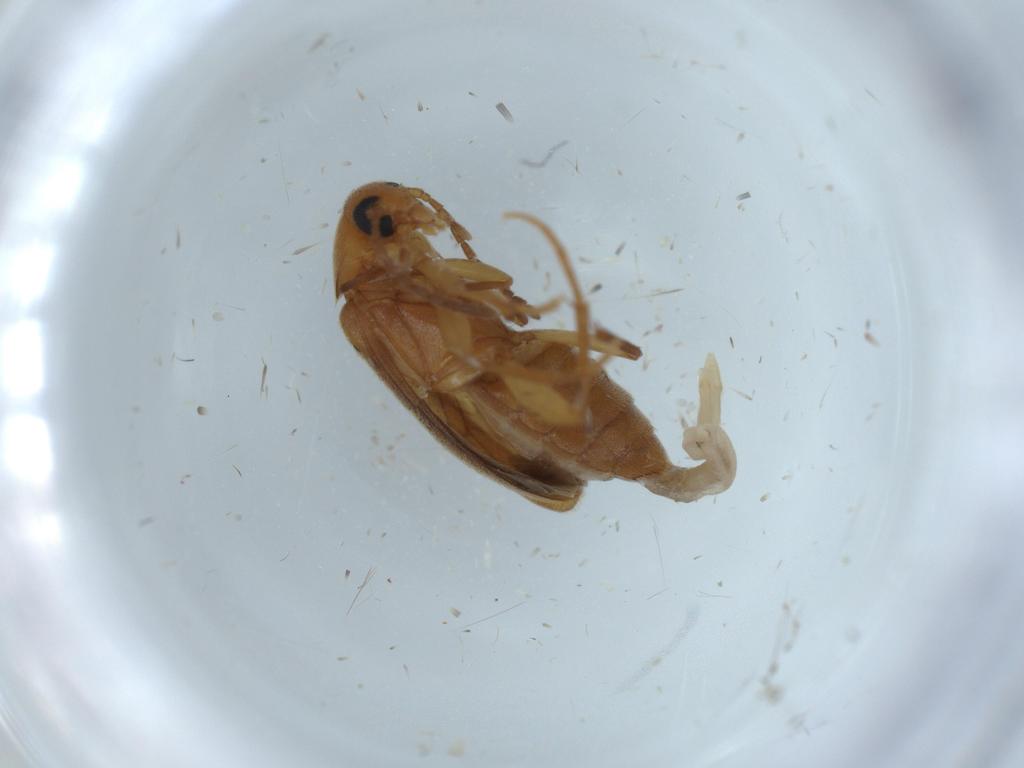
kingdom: Animalia
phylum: Arthropoda
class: Insecta
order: Coleoptera
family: Scraptiidae
